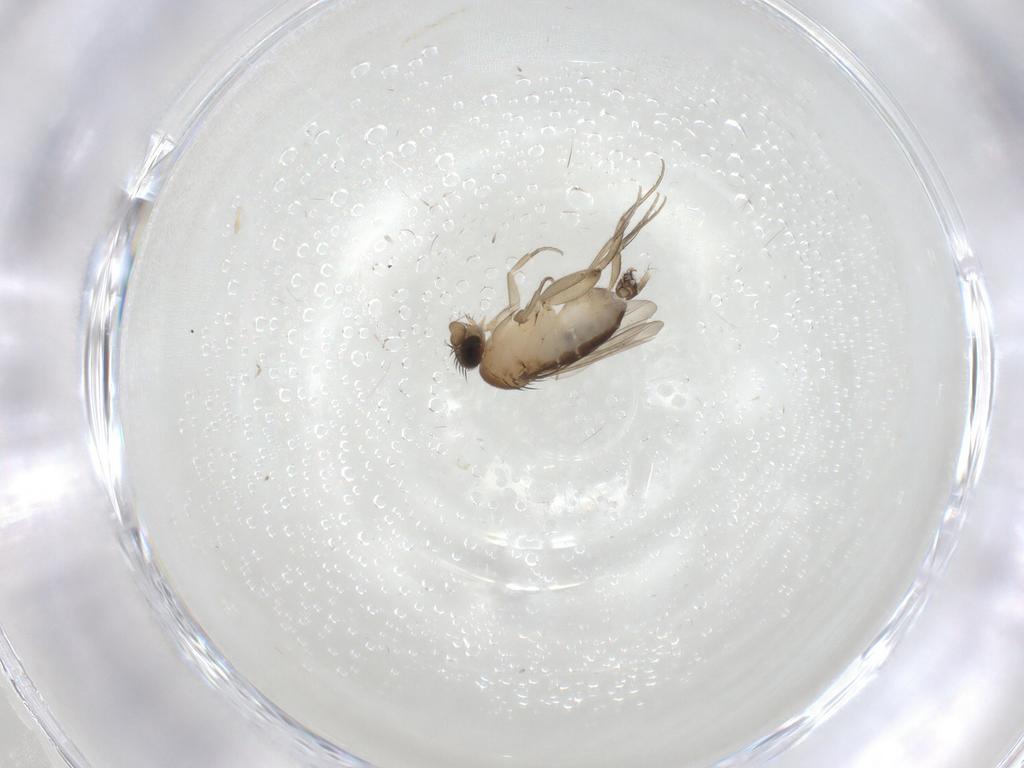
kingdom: Animalia
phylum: Arthropoda
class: Insecta
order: Diptera
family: Phoridae
